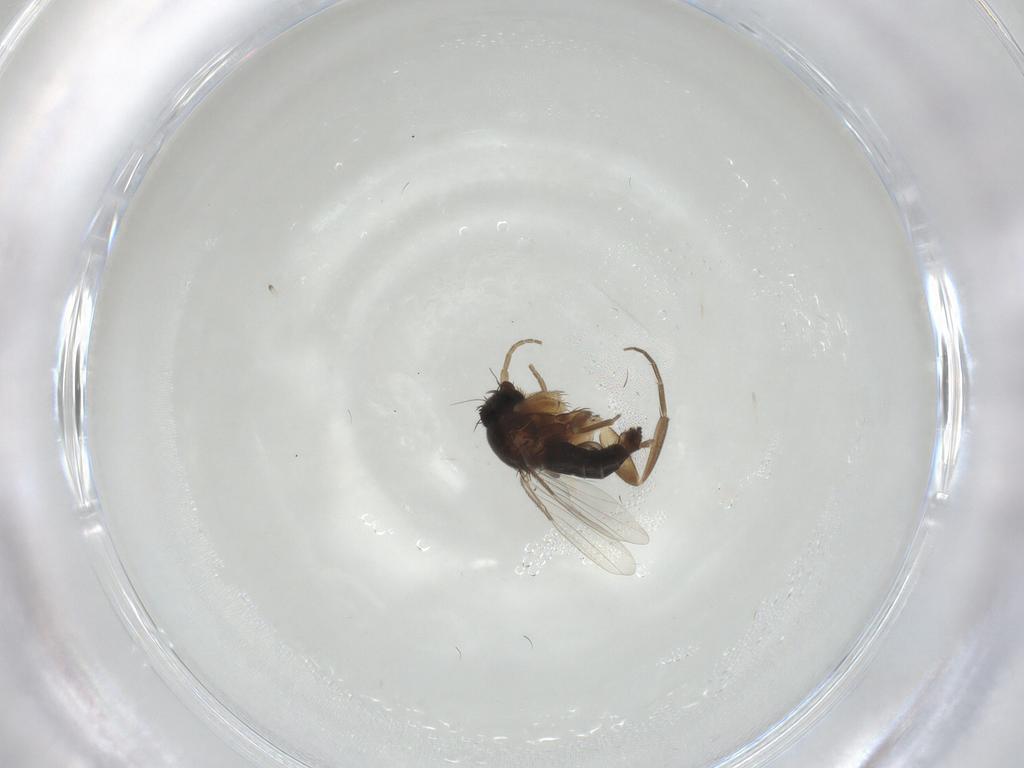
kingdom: Animalia
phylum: Arthropoda
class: Insecta
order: Diptera
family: Phoridae
